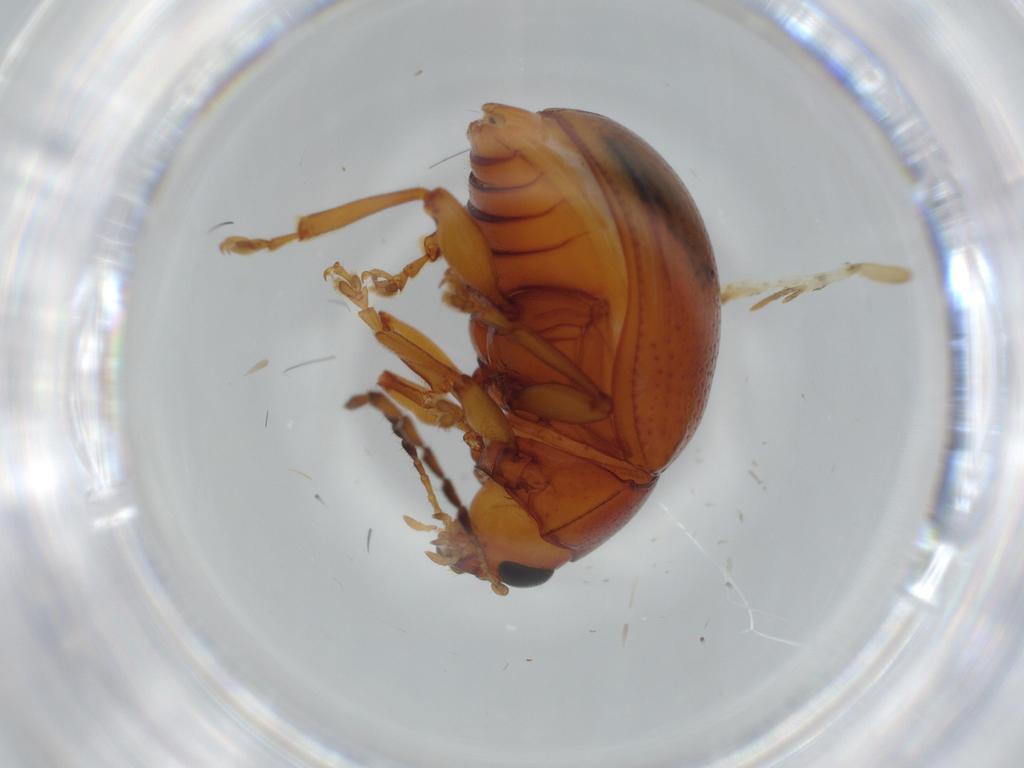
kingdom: Animalia
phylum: Arthropoda
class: Insecta
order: Coleoptera
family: Chrysomelidae
